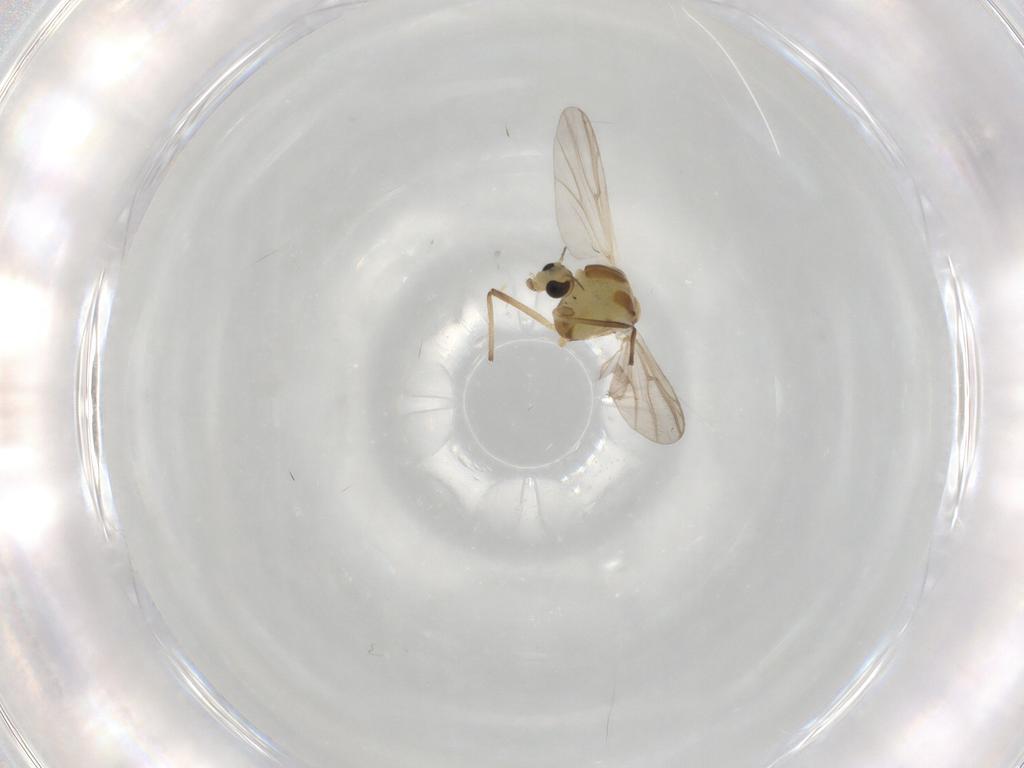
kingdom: Animalia
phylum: Arthropoda
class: Insecta
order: Diptera
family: Chironomidae
